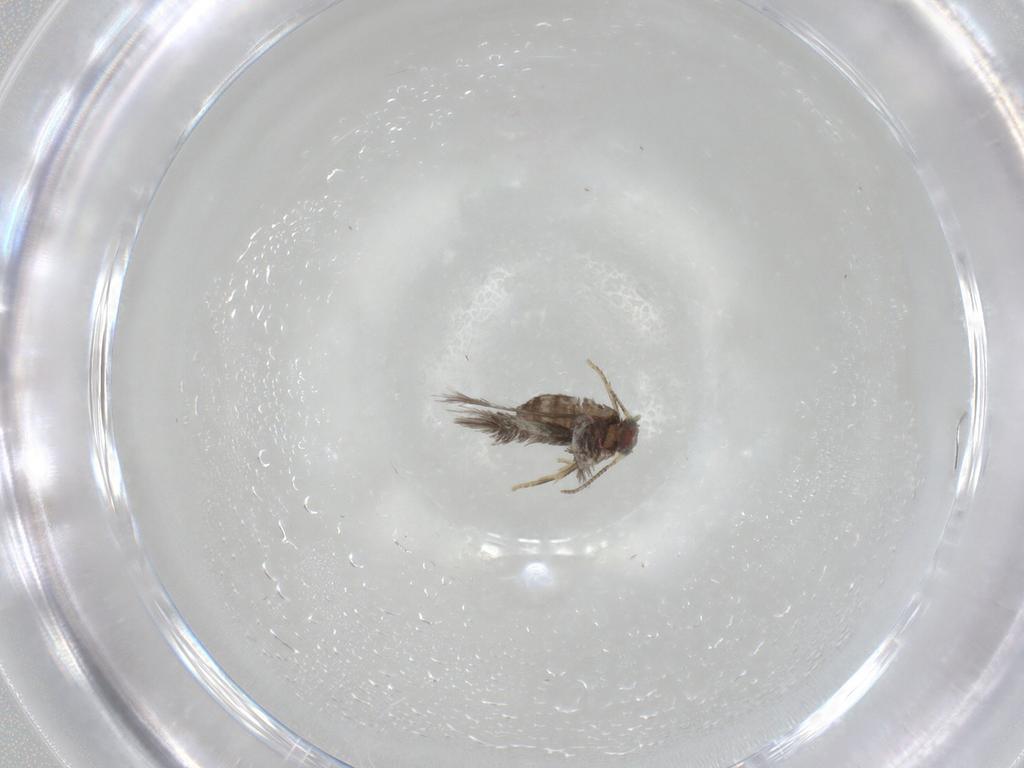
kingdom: Animalia
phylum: Arthropoda
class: Insecta
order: Lepidoptera
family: Nepticulidae
